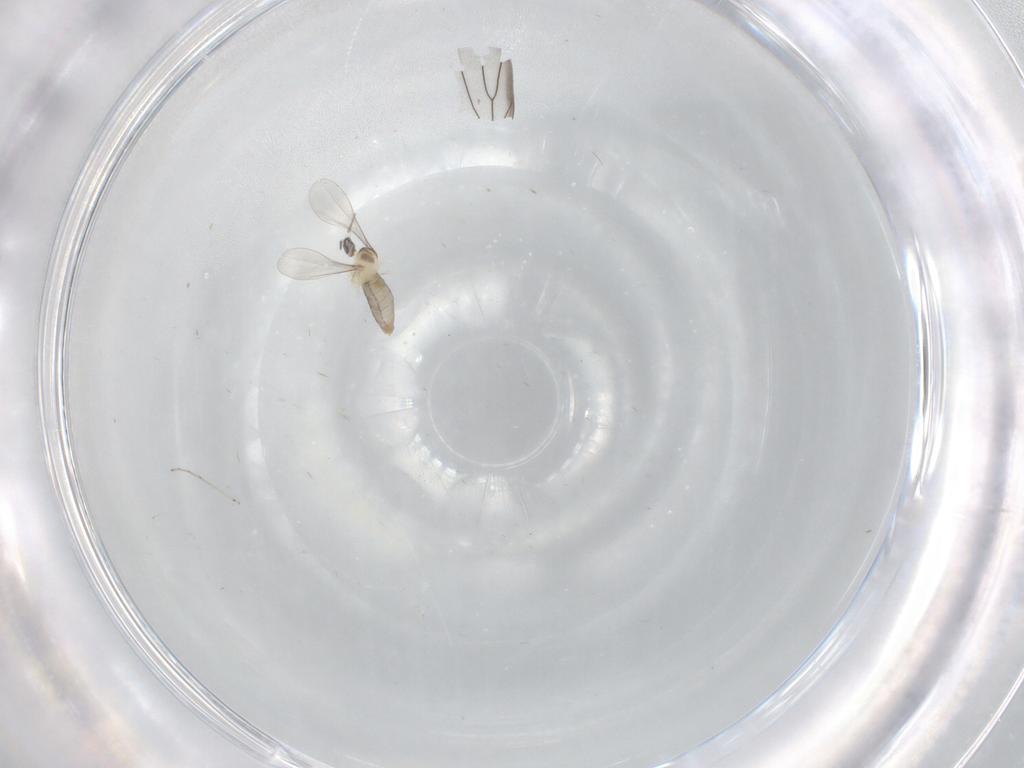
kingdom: Animalia
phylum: Arthropoda
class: Insecta
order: Diptera
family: Cecidomyiidae
